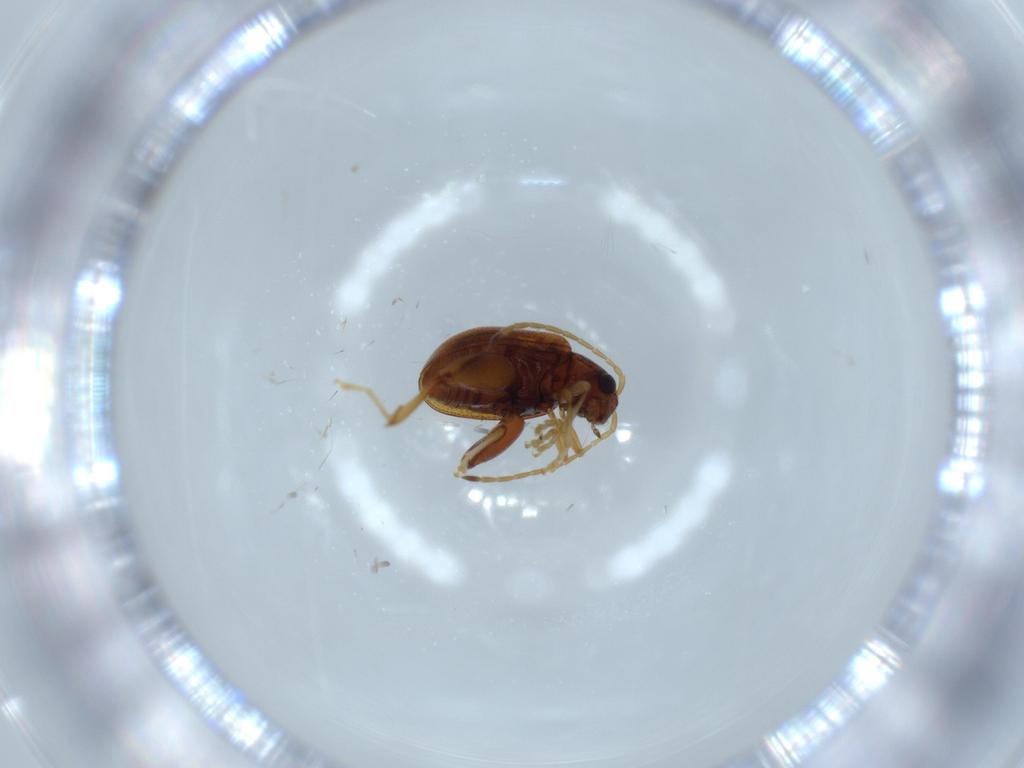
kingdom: Animalia
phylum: Arthropoda
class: Insecta
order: Coleoptera
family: Chrysomelidae
